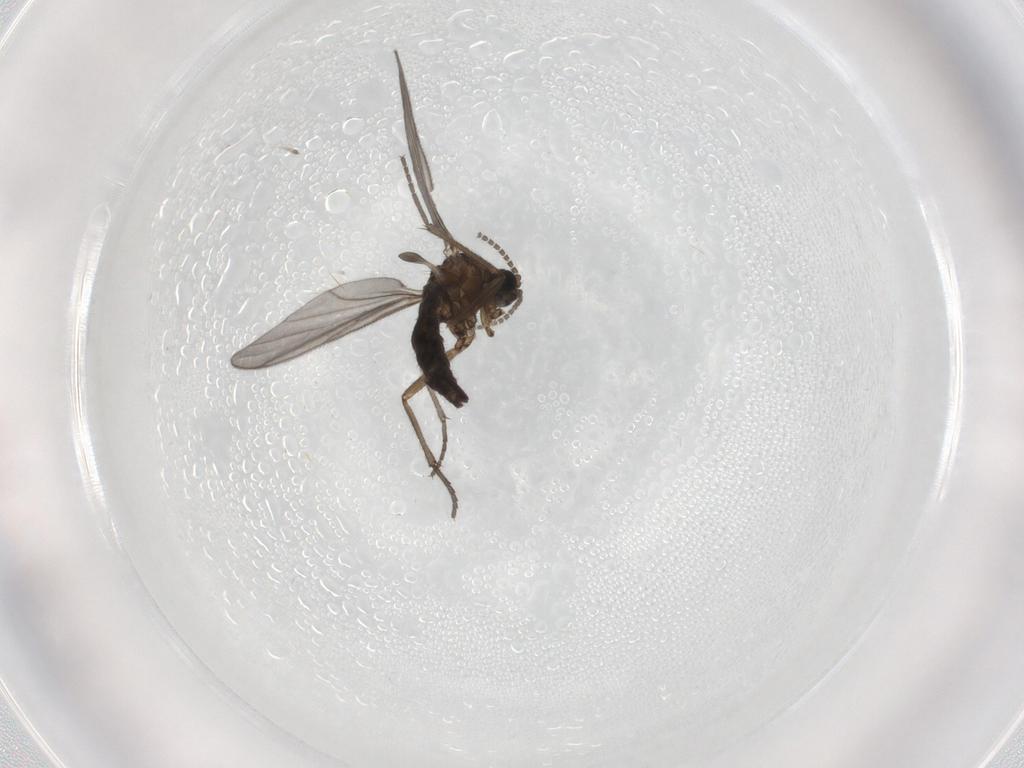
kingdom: Animalia
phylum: Arthropoda
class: Insecta
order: Diptera
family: Sciaridae
